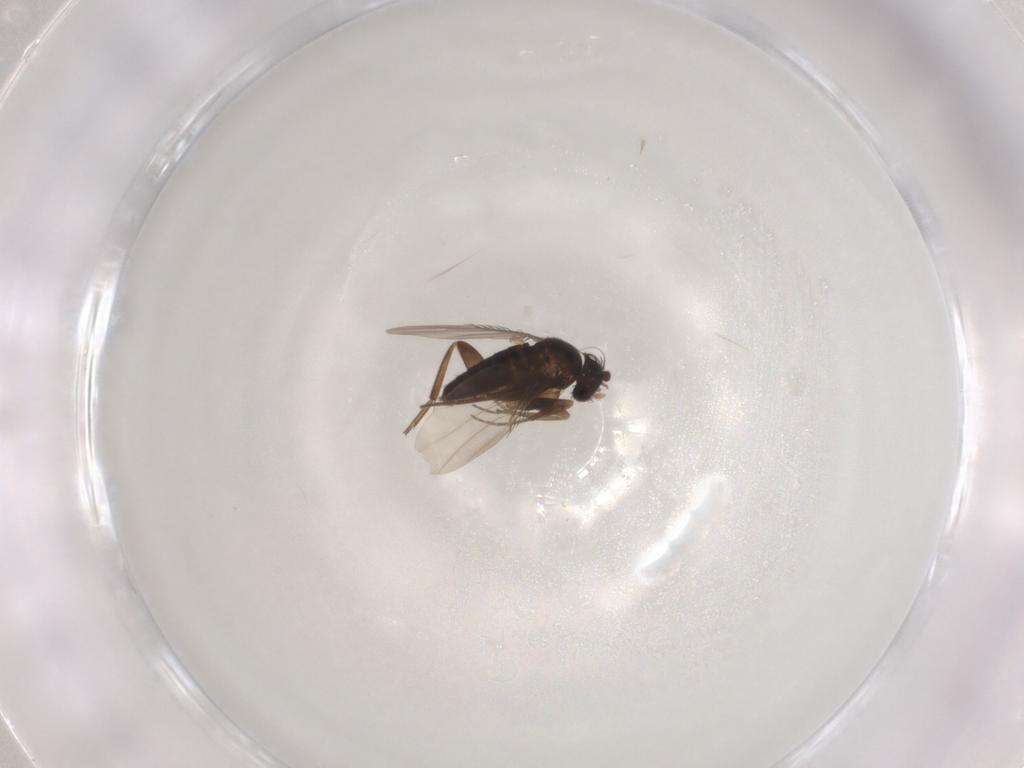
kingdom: Animalia
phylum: Arthropoda
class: Insecta
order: Diptera
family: Phoridae
